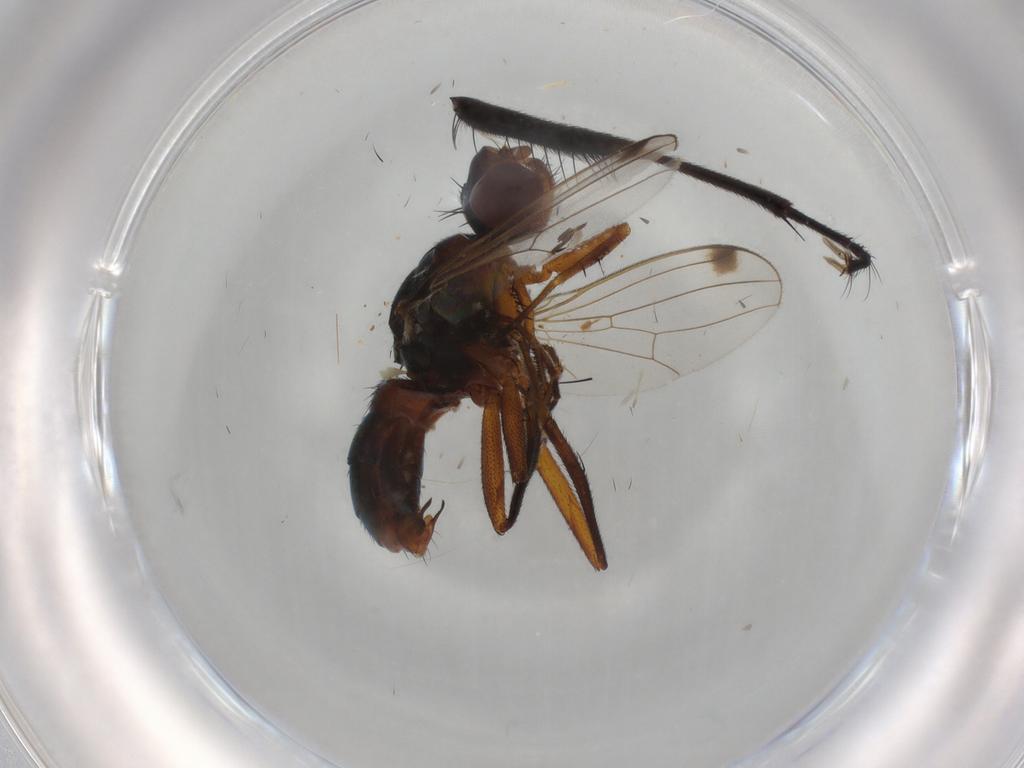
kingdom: Animalia
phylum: Arthropoda
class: Insecta
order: Diptera
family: Sepsidae
